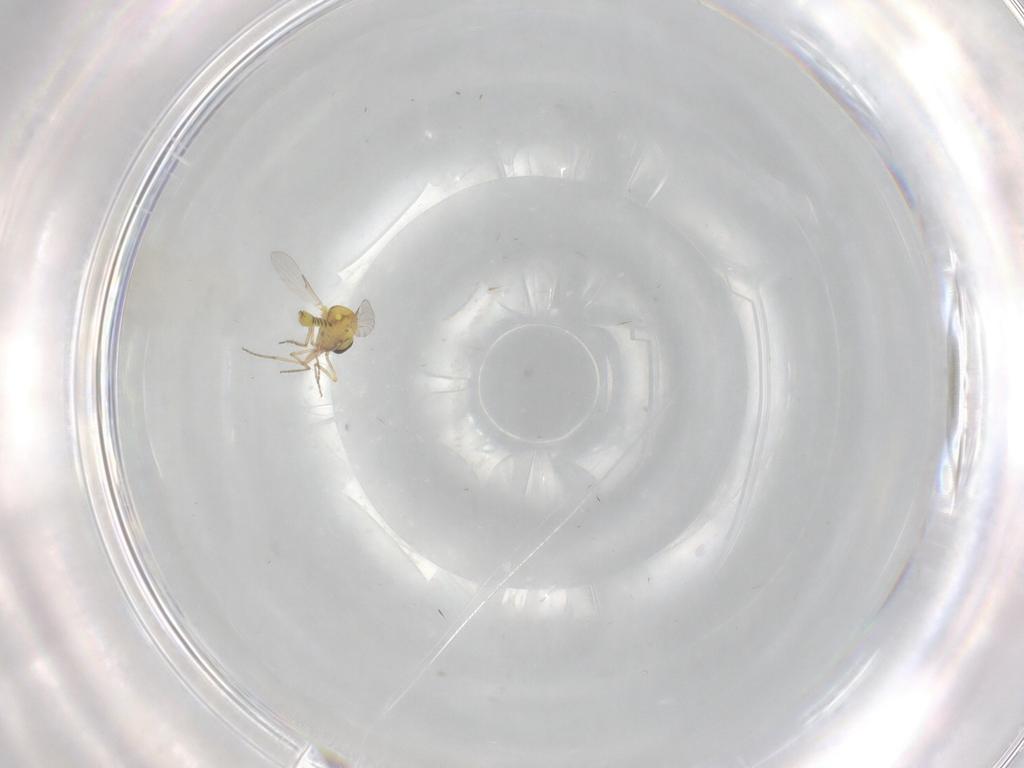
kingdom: Animalia
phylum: Arthropoda
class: Insecta
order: Diptera
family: Ceratopogonidae
